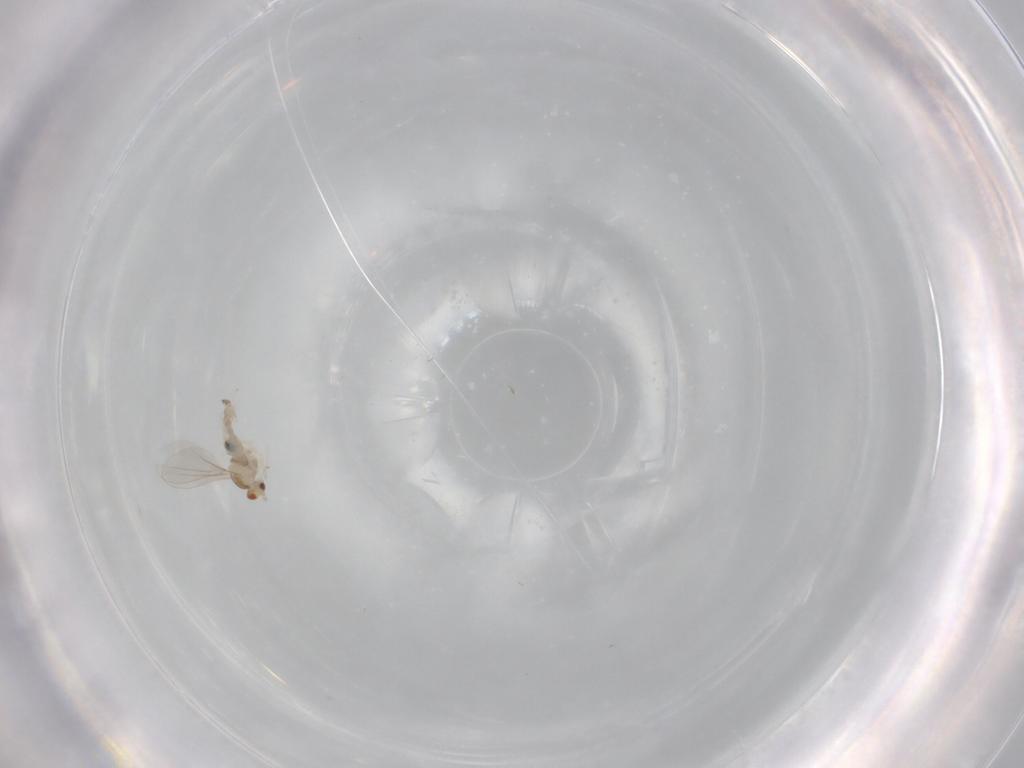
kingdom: Animalia
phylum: Arthropoda
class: Insecta
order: Diptera
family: Cecidomyiidae
